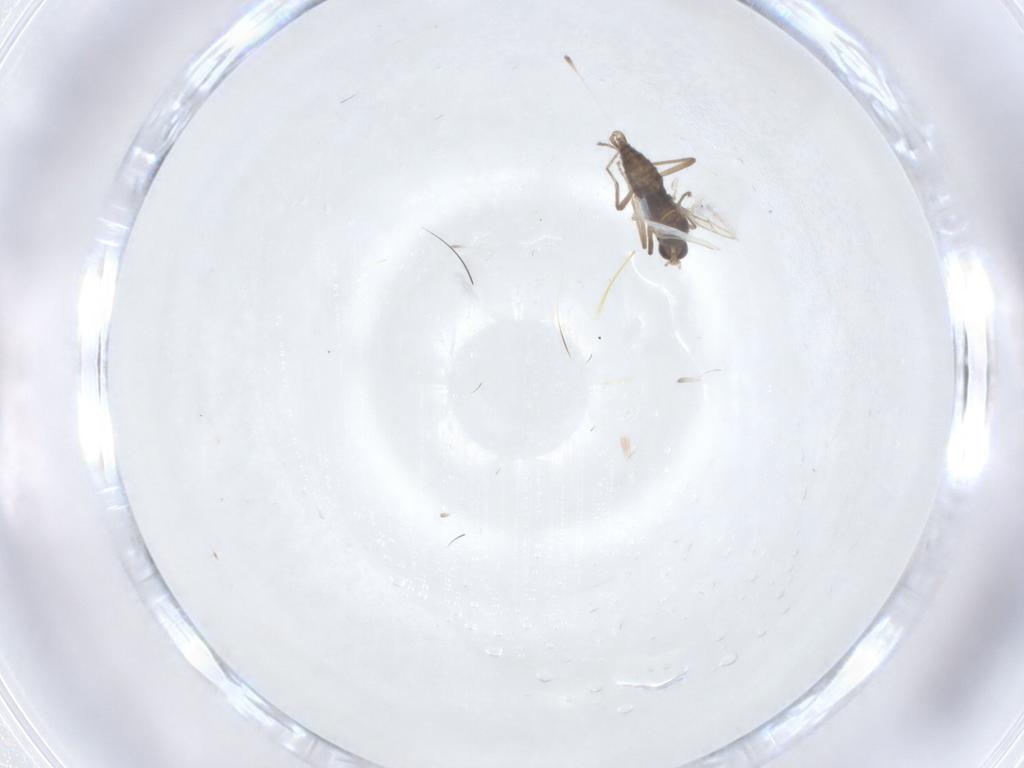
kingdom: Animalia
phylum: Arthropoda
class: Insecta
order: Diptera
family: Cecidomyiidae
